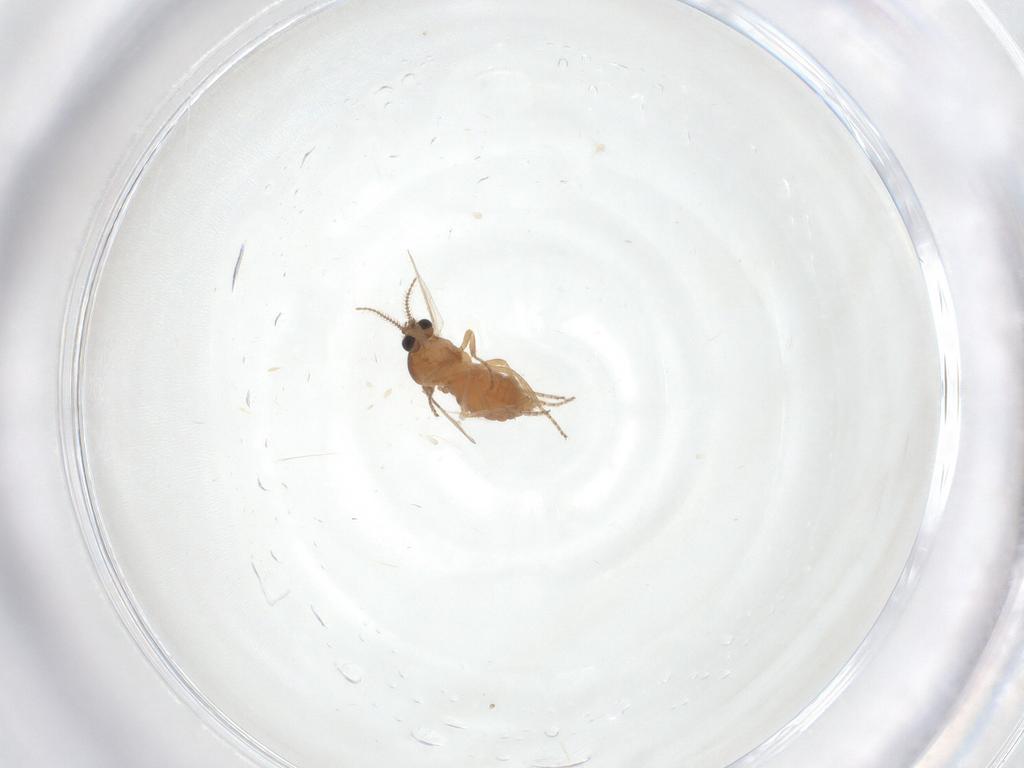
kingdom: Animalia
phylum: Arthropoda
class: Insecta
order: Diptera
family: Ceratopogonidae
